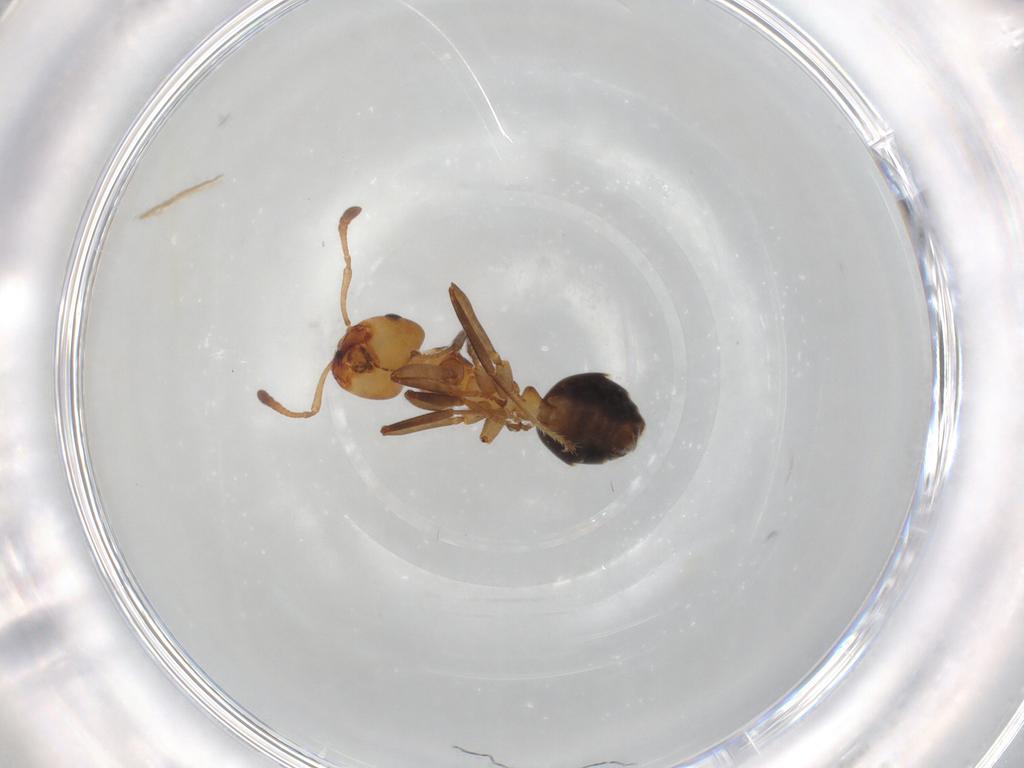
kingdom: Animalia
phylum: Arthropoda
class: Insecta
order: Hymenoptera
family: Formicidae
